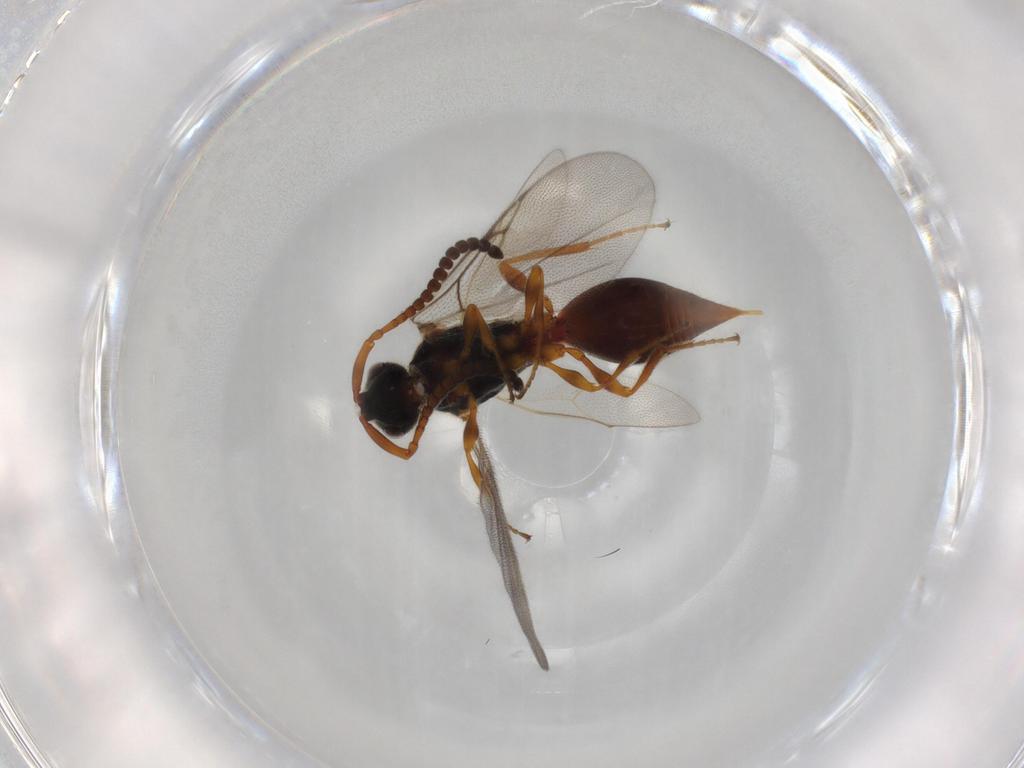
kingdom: Animalia
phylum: Arthropoda
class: Insecta
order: Hymenoptera
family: Diapriidae
